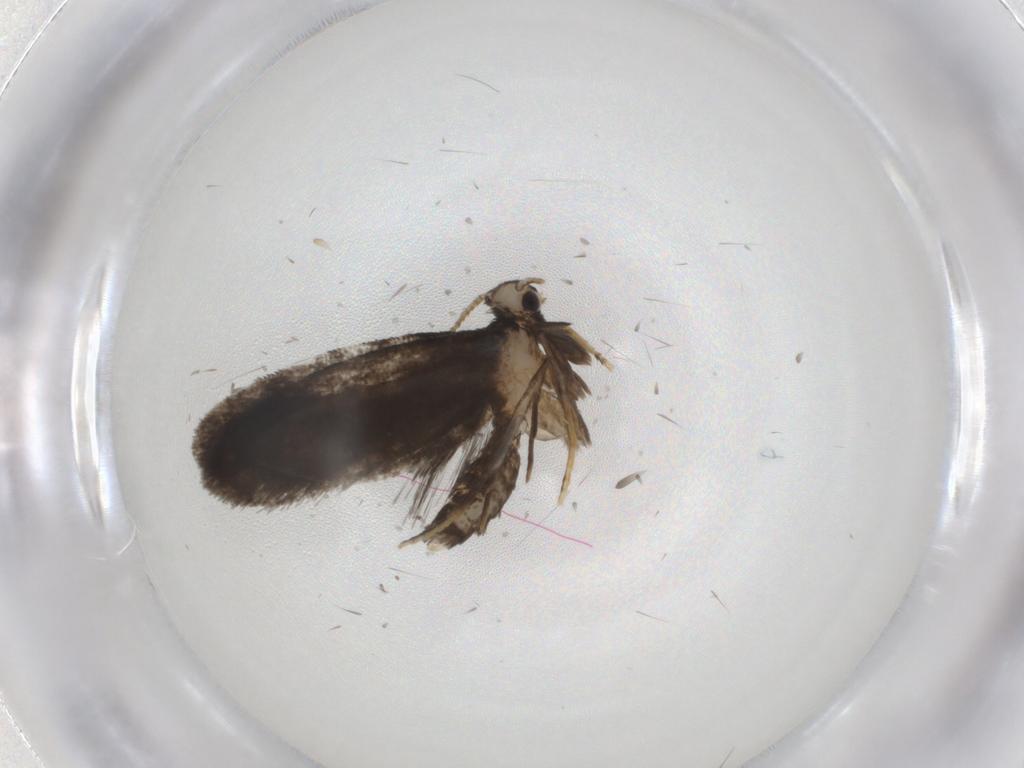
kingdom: Animalia
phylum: Arthropoda
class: Insecta
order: Lepidoptera
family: Psychidae
